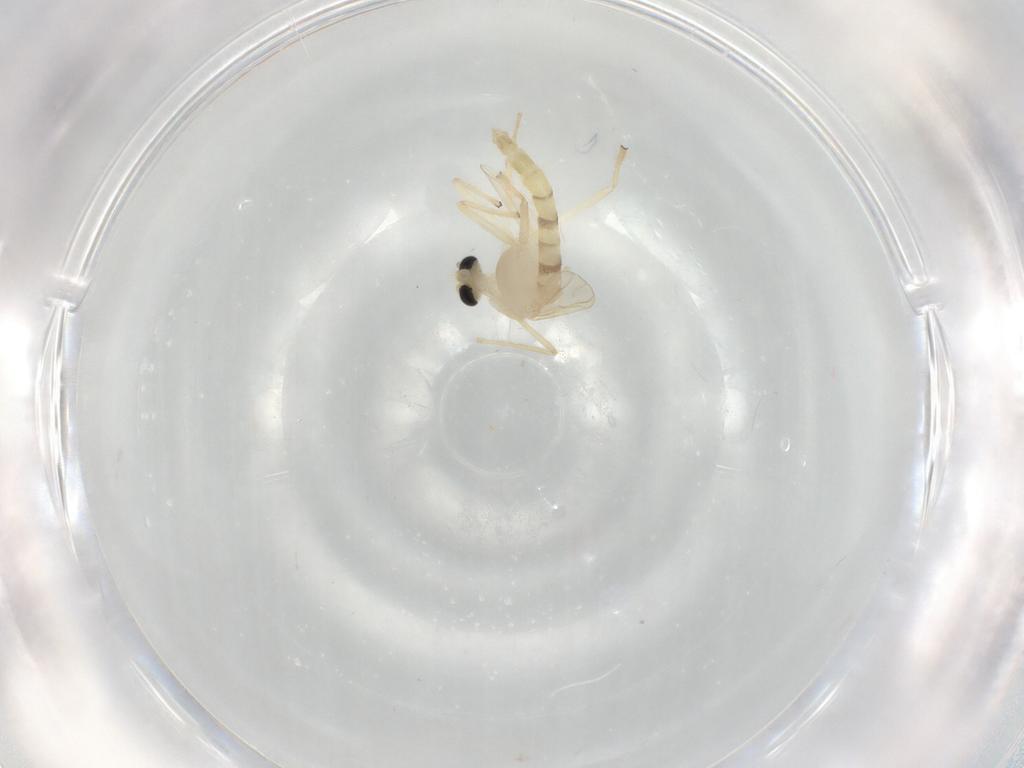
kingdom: Animalia
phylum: Arthropoda
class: Insecta
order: Diptera
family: Chironomidae
